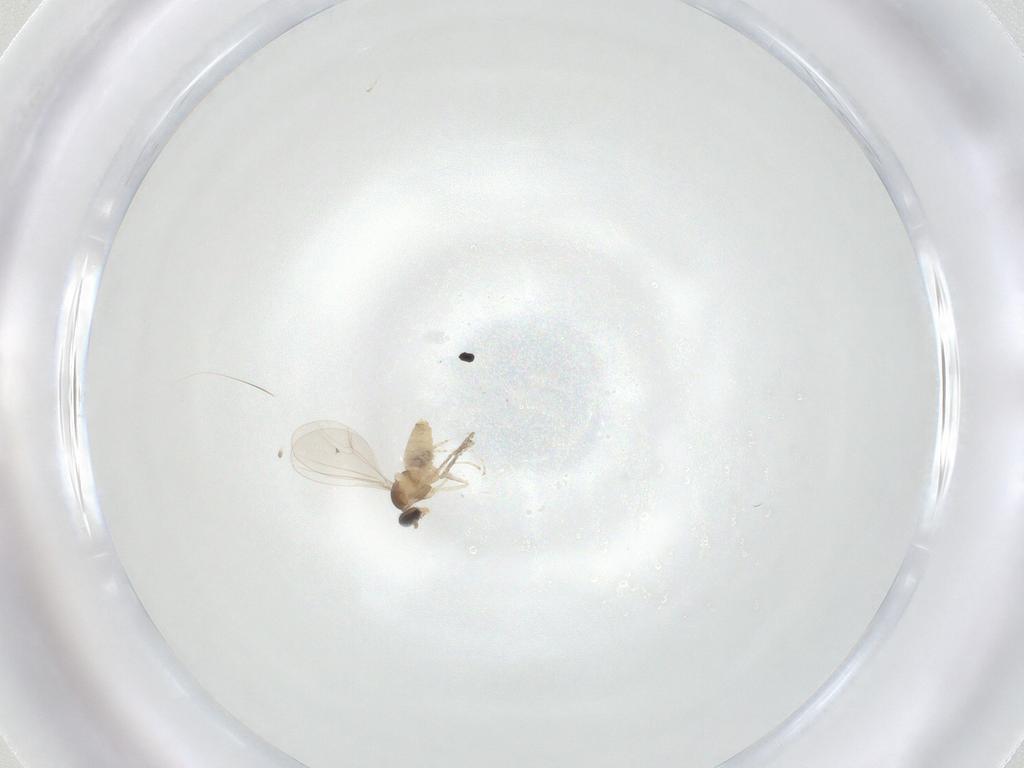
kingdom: Animalia
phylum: Arthropoda
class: Insecta
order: Diptera
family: Cecidomyiidae
